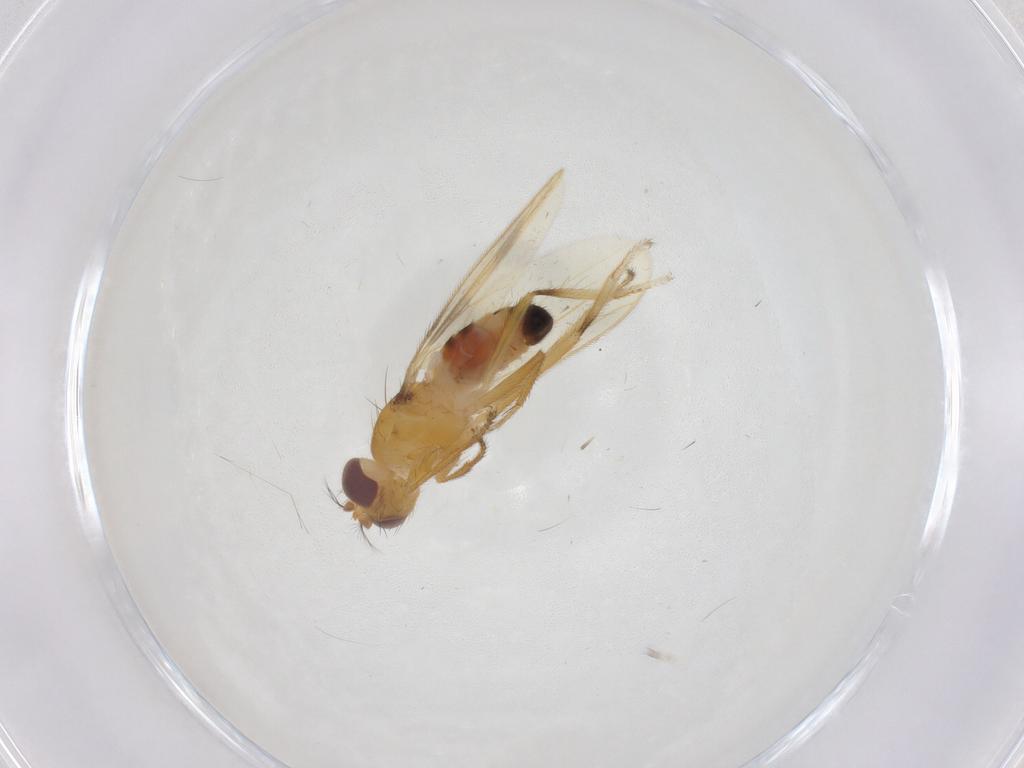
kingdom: Animalia
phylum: Arthropoda
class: Insecta
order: Diptera
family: Periscelididae
